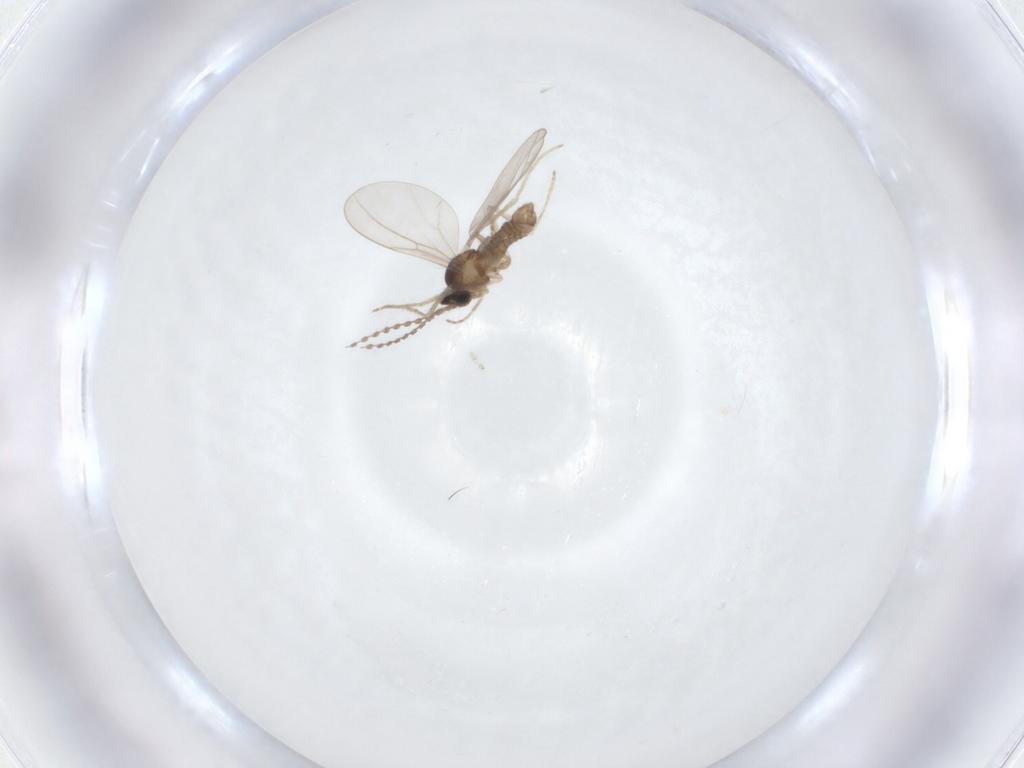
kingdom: Animalia
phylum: Arthropoda
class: Insecta
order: Diptera
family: Cecidomyiidae
